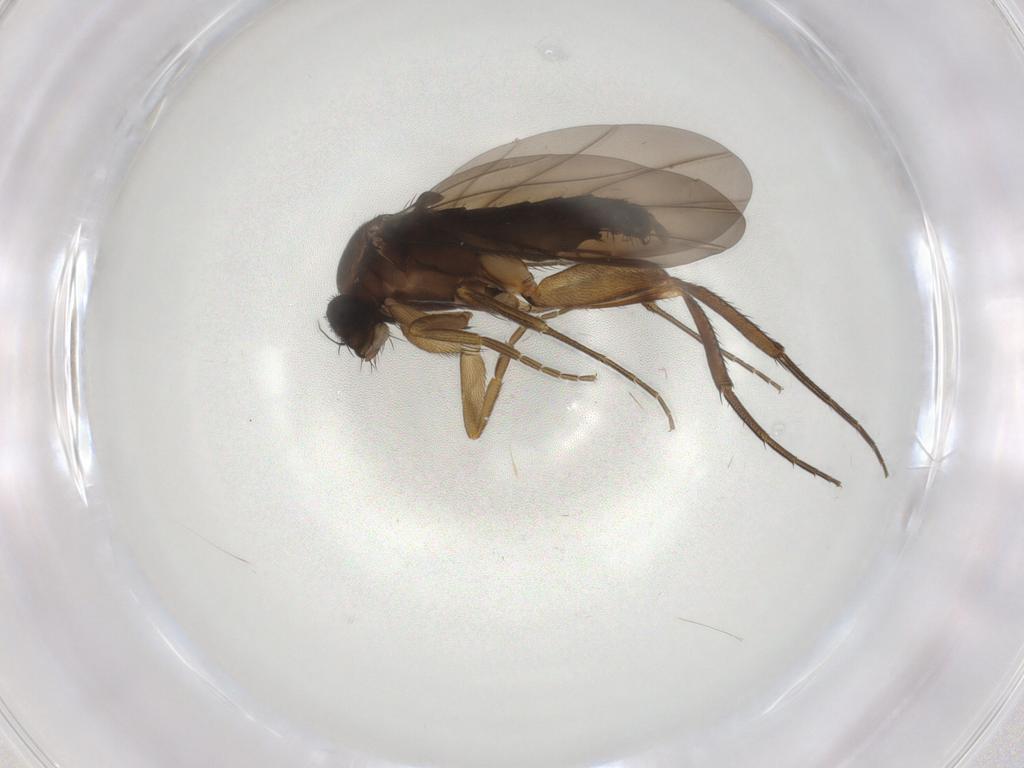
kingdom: Animalia
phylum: Arthropoda
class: Insecta
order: Diptera
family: Phoridae
